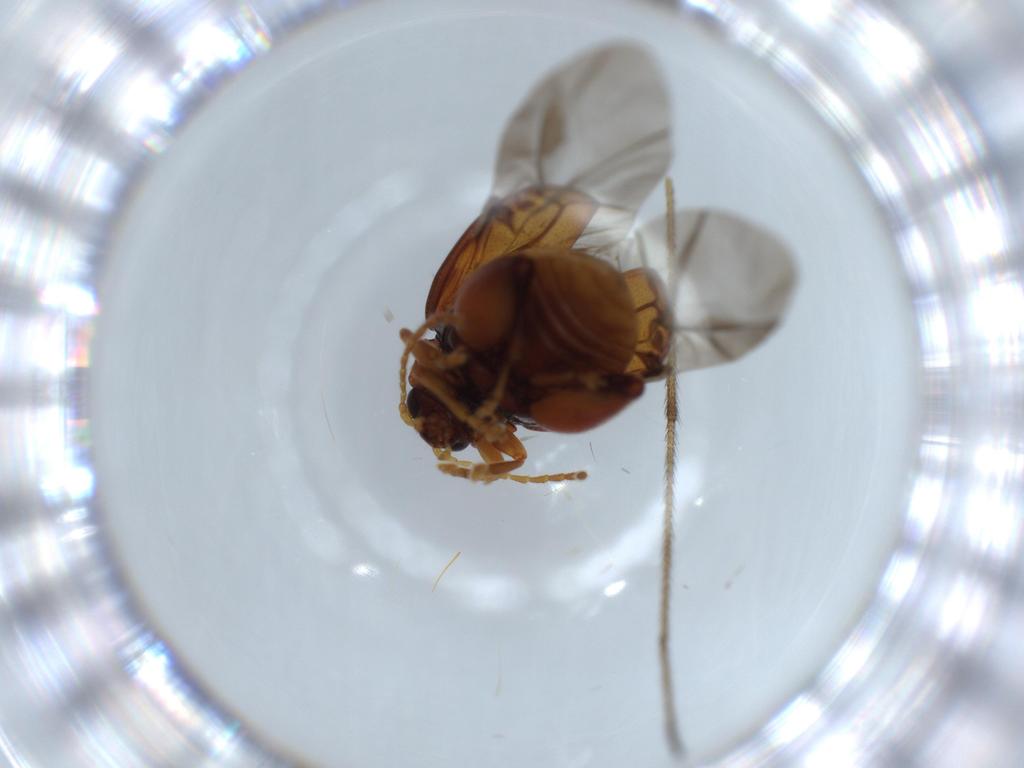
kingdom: Animalia
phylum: Arthropoda
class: Insecta
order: Coleoptera
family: Chrysomelidae
